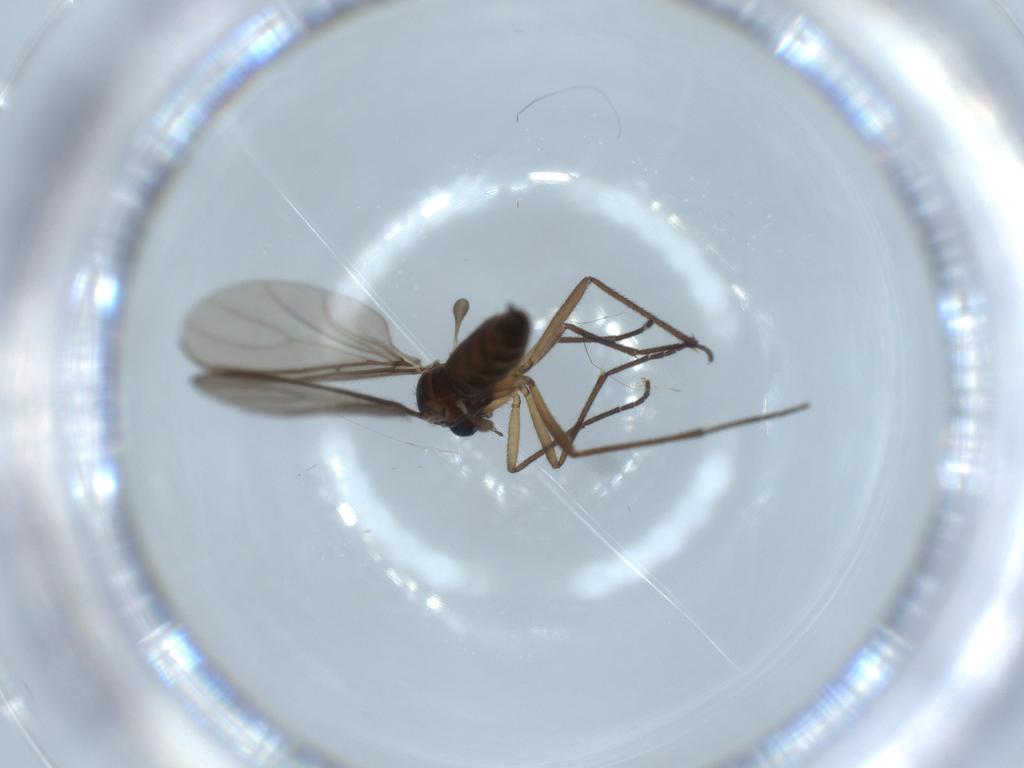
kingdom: Animalia
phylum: Arthropoda
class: Insecta
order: Diptera
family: Sciaridae
